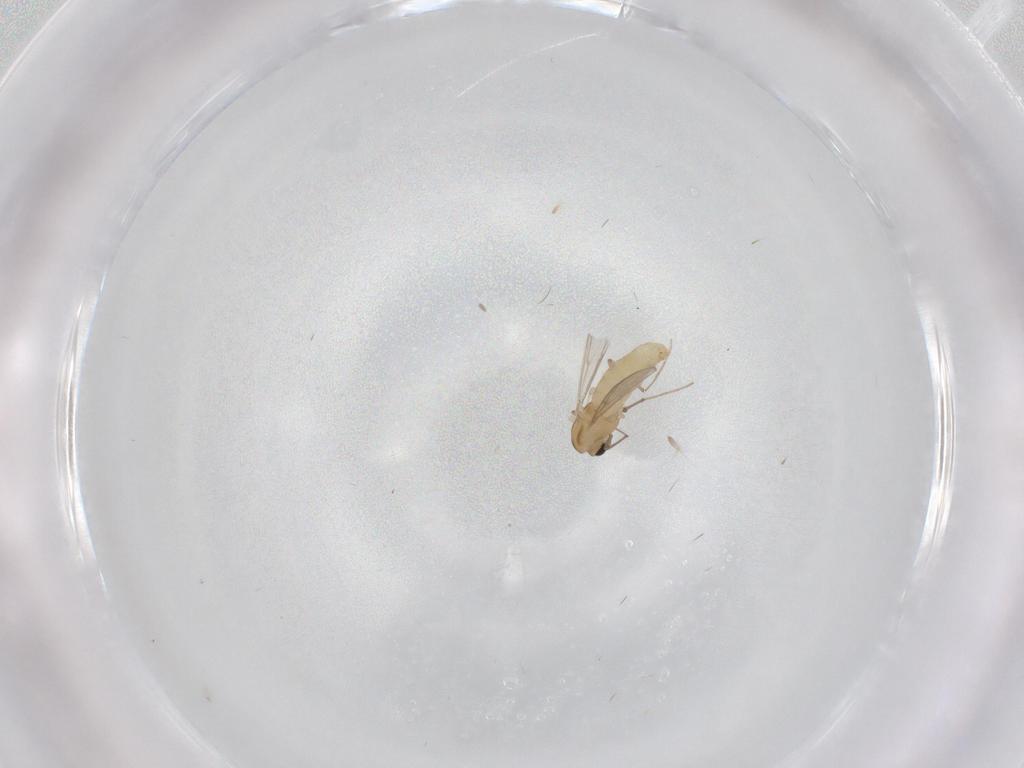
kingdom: Animalia
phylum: Arthropoda
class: Insecta
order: Diptera
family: Chironomidae
